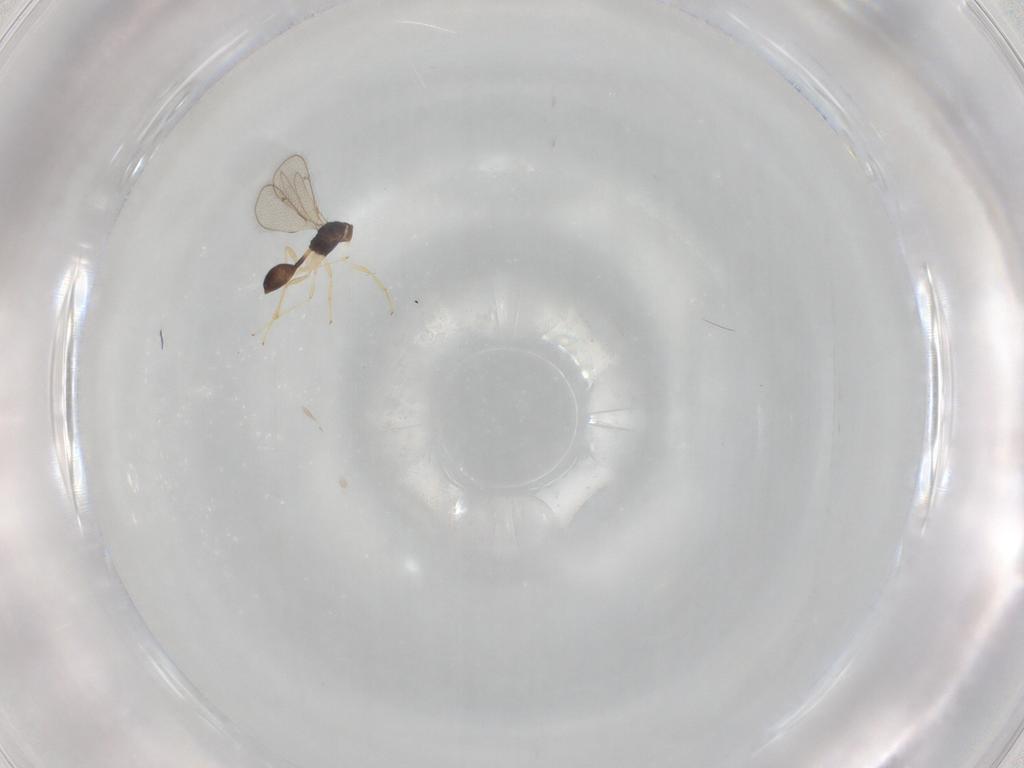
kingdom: Animalia
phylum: Arthropoda
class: Insecta
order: Hymenoptera
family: Diparidae
